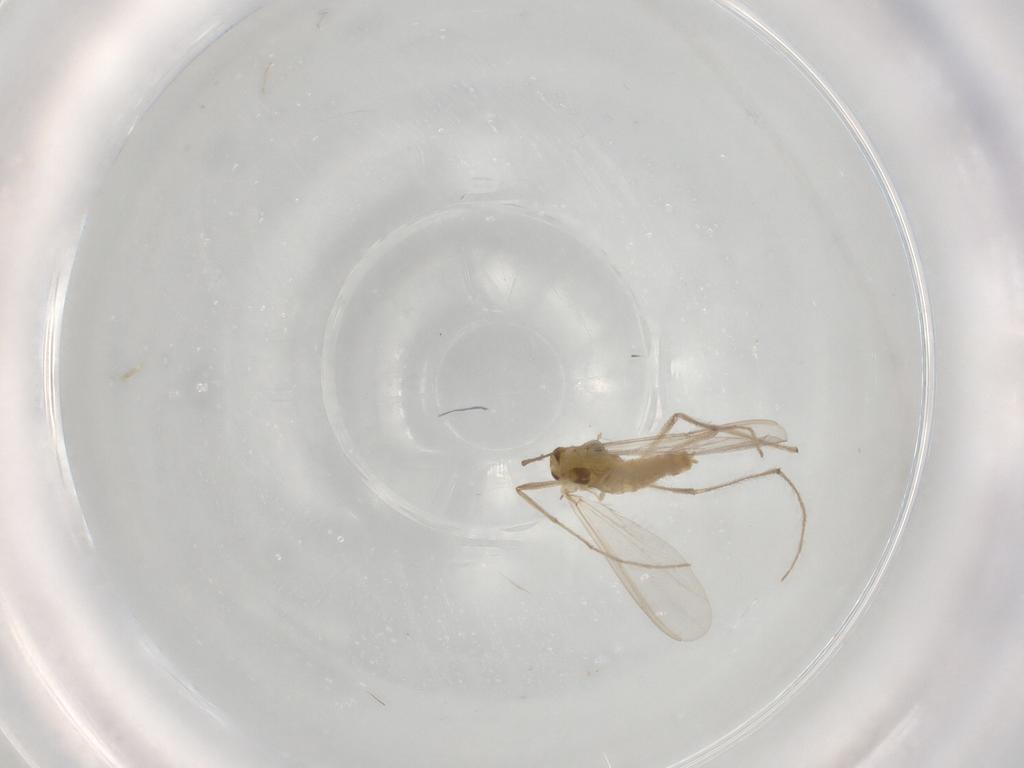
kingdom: Animalia
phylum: Arthropoda
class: Insecta
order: Diptera
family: Chironomidae
